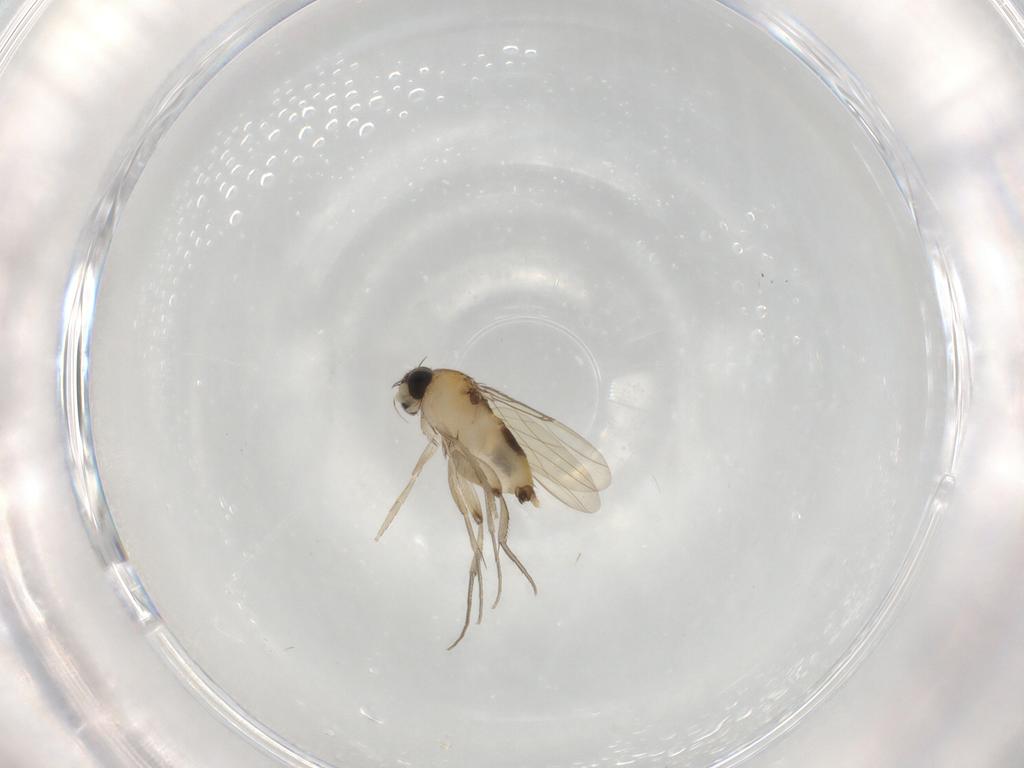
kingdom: Animalia
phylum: Arthropoda
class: Insecta
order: Diptera
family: Phoridae
